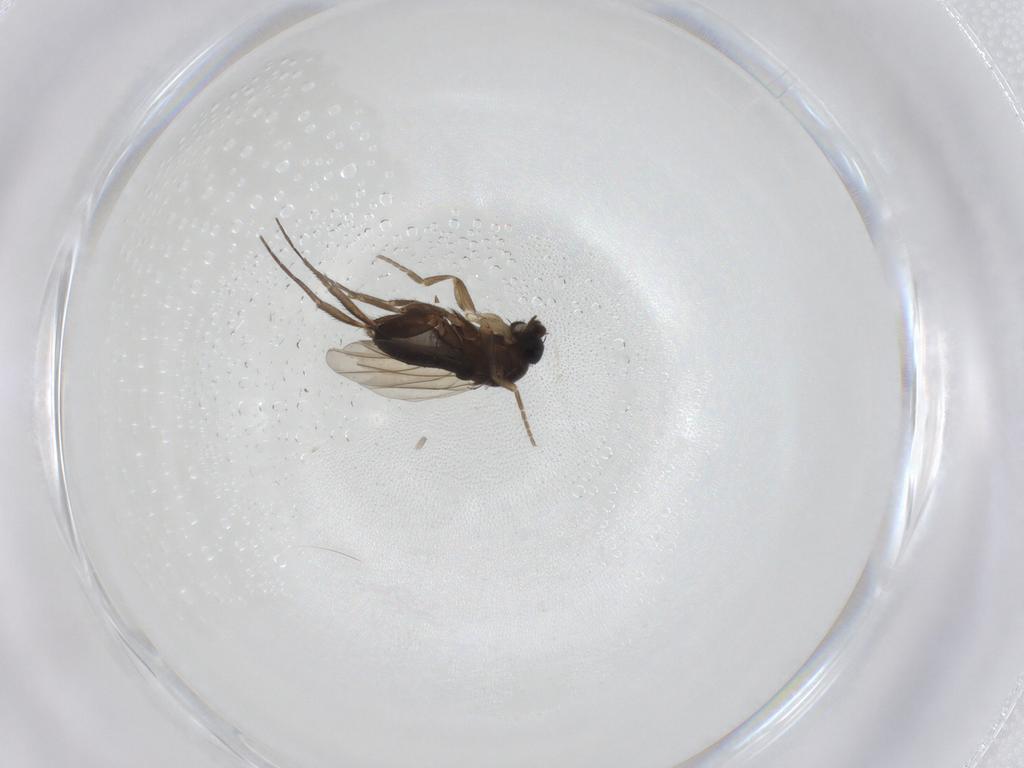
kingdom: Animalia
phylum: Arthropoda
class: Insecta
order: Diptera
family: Phoridae
